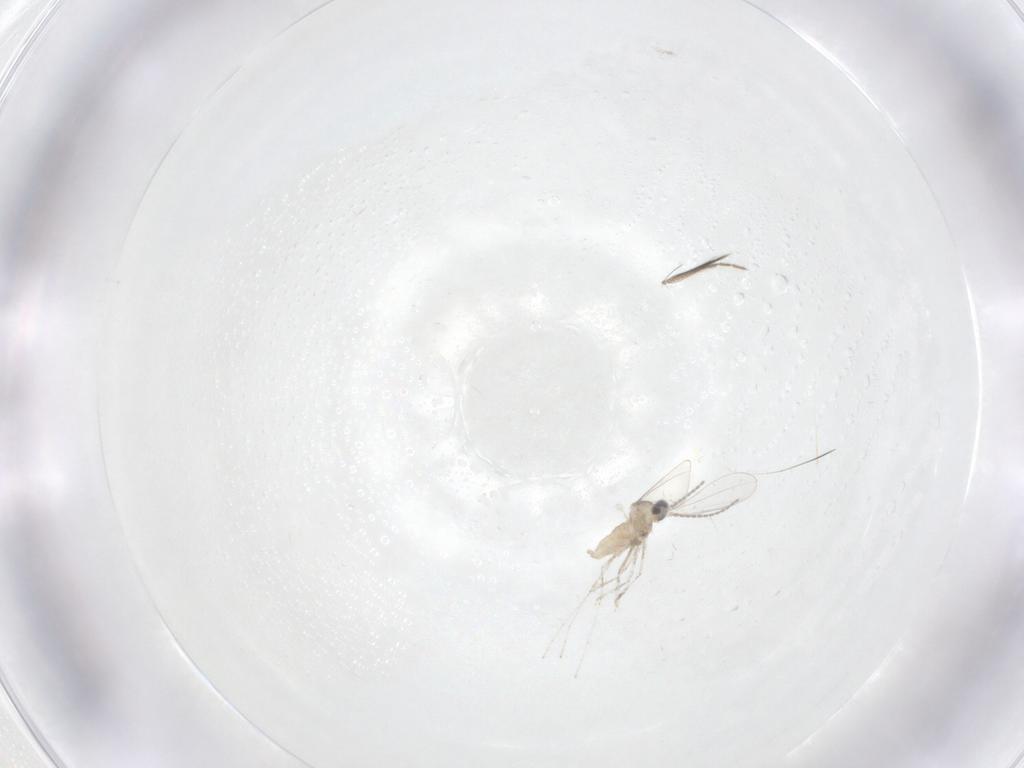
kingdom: Animalia
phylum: Arthropoda
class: Insecta
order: Diptera
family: Cecidomyiidae
